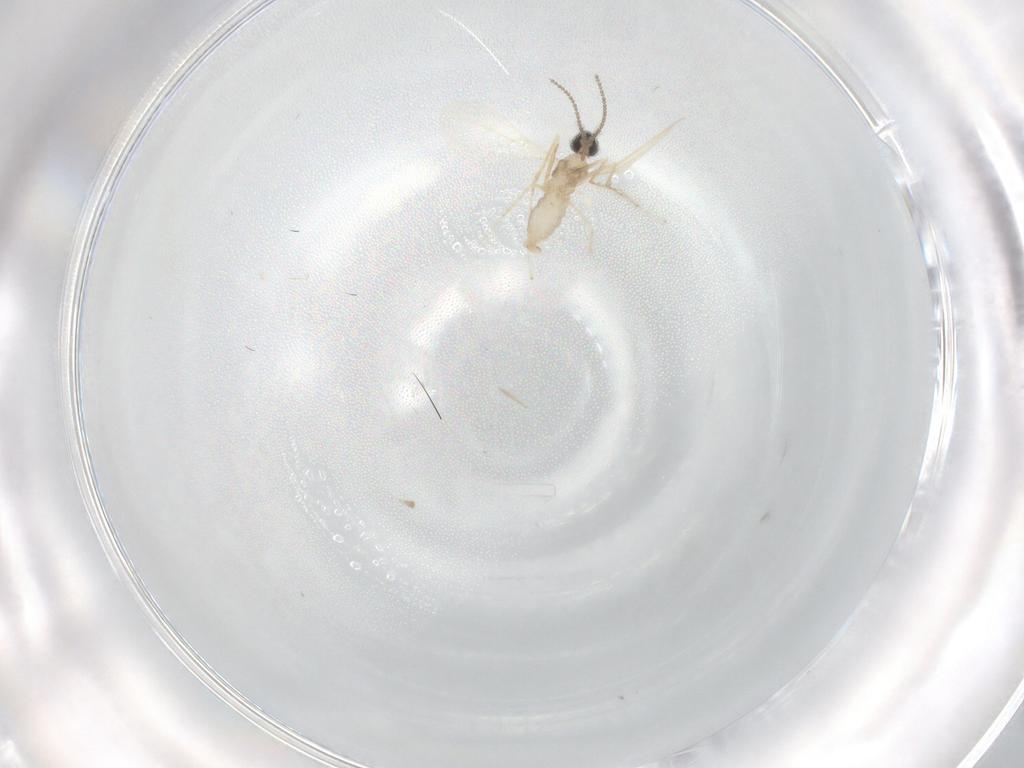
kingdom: Animalia
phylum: Arthropoda
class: Insecta
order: Diptera
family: Cecidomyiidae
